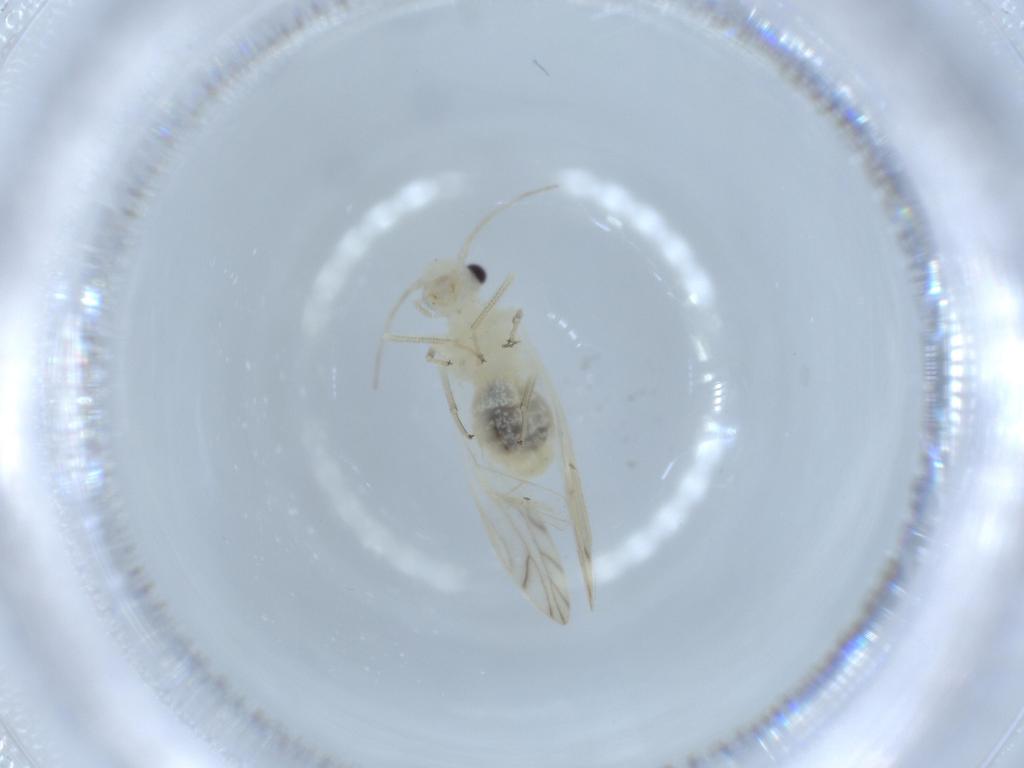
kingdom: Animalia
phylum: Arthropoda
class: Insecta
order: Psocodea
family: Caeciliusidae
